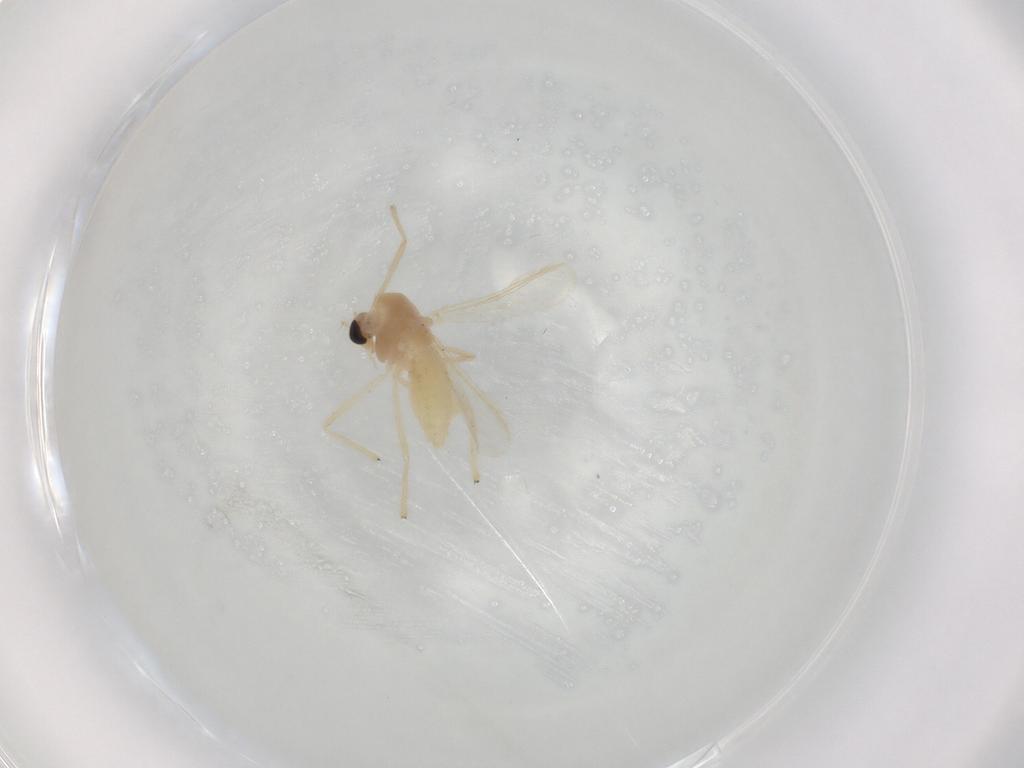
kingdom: Animalia
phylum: Arthropoda
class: Insecta
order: Diptera
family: Chironomidae
